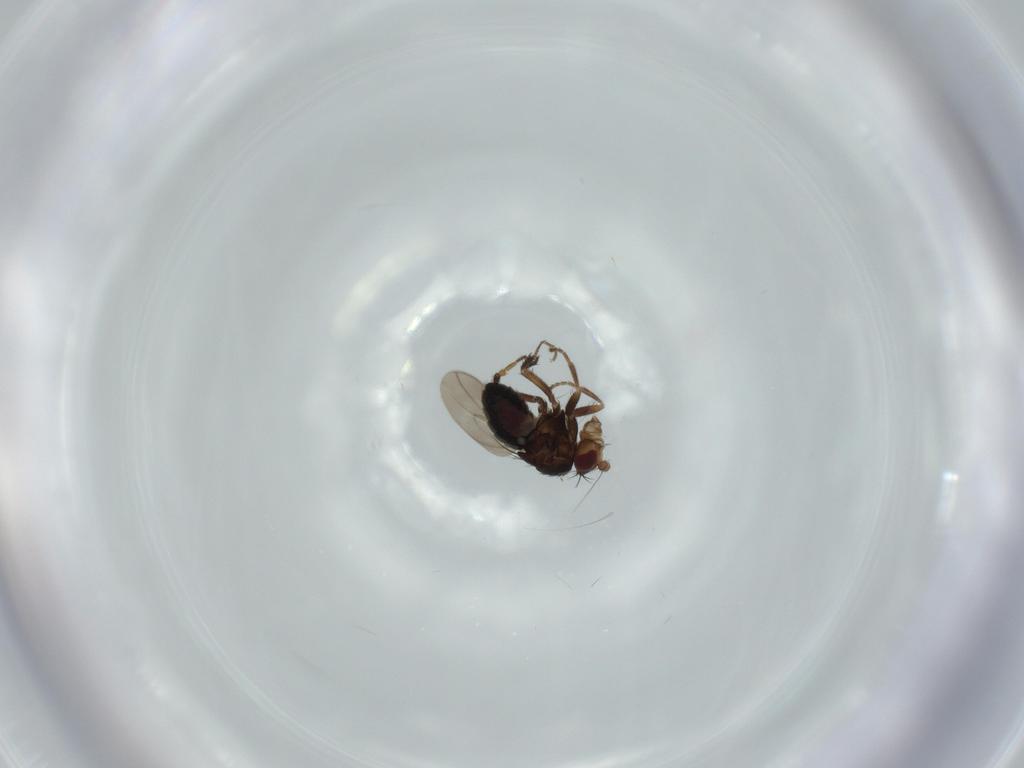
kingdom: Animalia
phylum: Arthropoda
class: Insecta
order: Diptera
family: Sphaeroceridae
